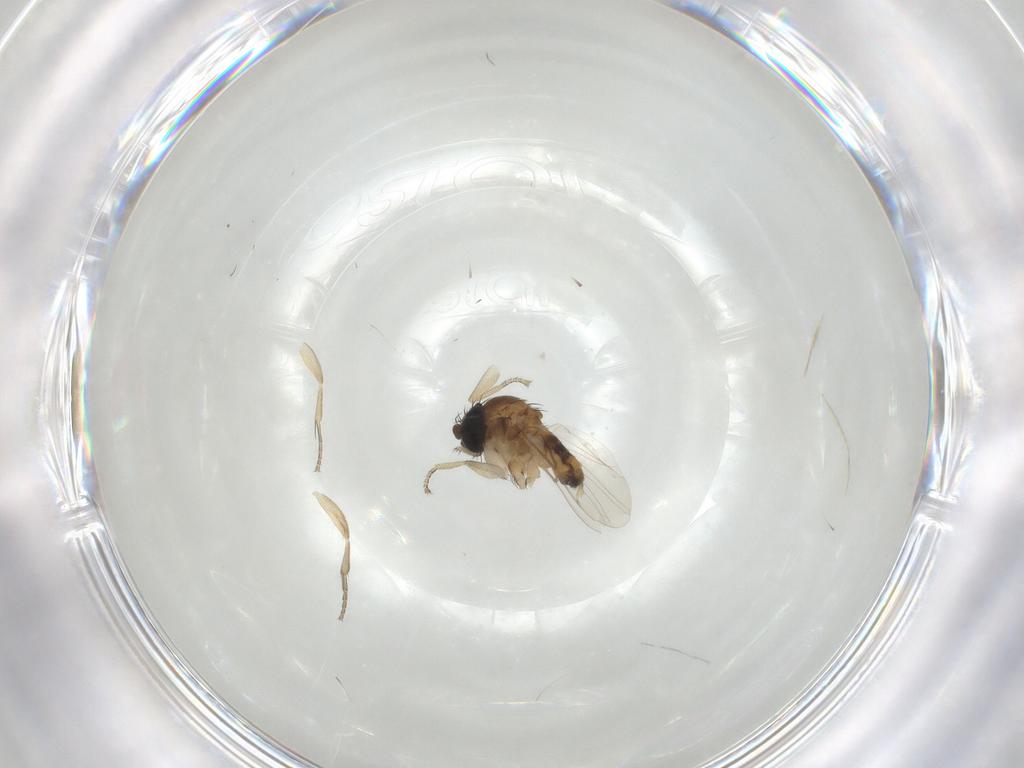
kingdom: Animalia
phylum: Arthropoda
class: Insecta
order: Diptera
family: Phoridae
